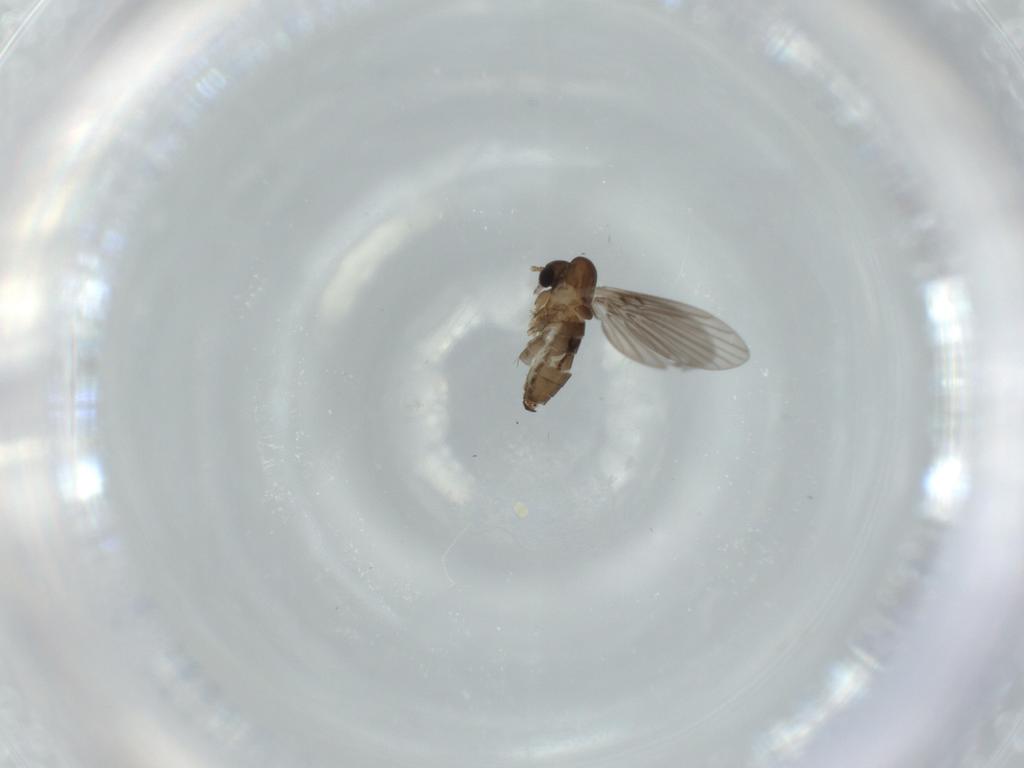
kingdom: Animalia
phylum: Arthropoda
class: Insecta
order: Diptera
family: Psychodidae
